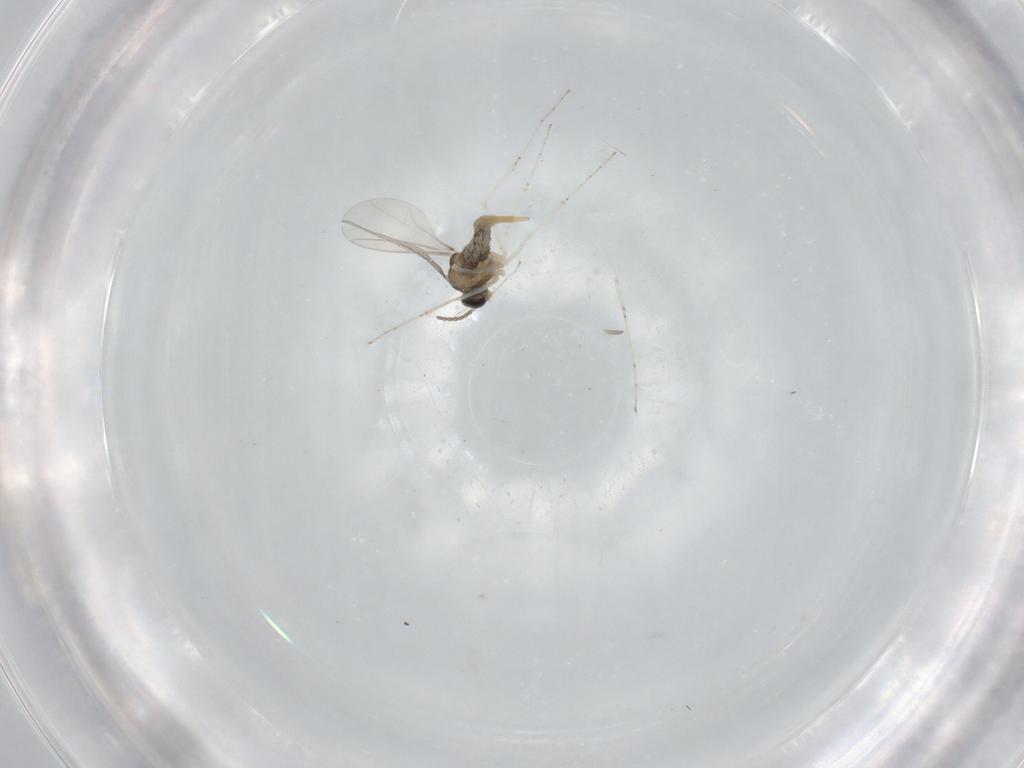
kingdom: Animalia
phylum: Arthropoda
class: Insecta
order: Diptera
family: Cecidomyiidae
